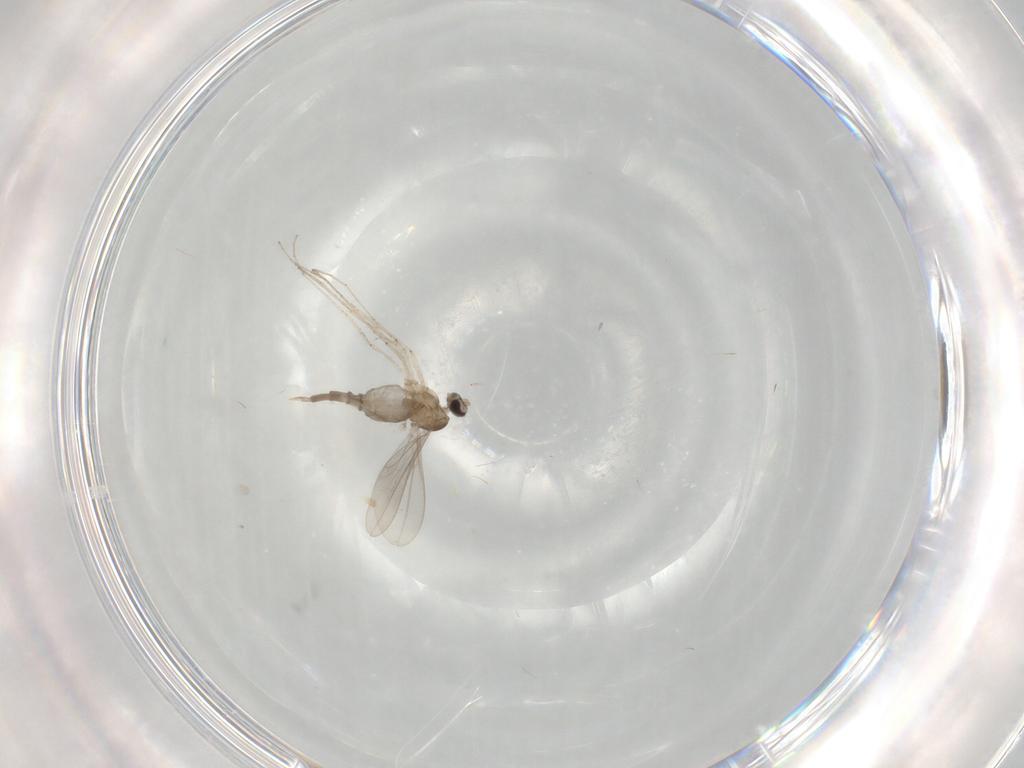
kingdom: Animalia
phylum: Arthropoda
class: Insecta
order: Diptera
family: Cecidomyiidae
